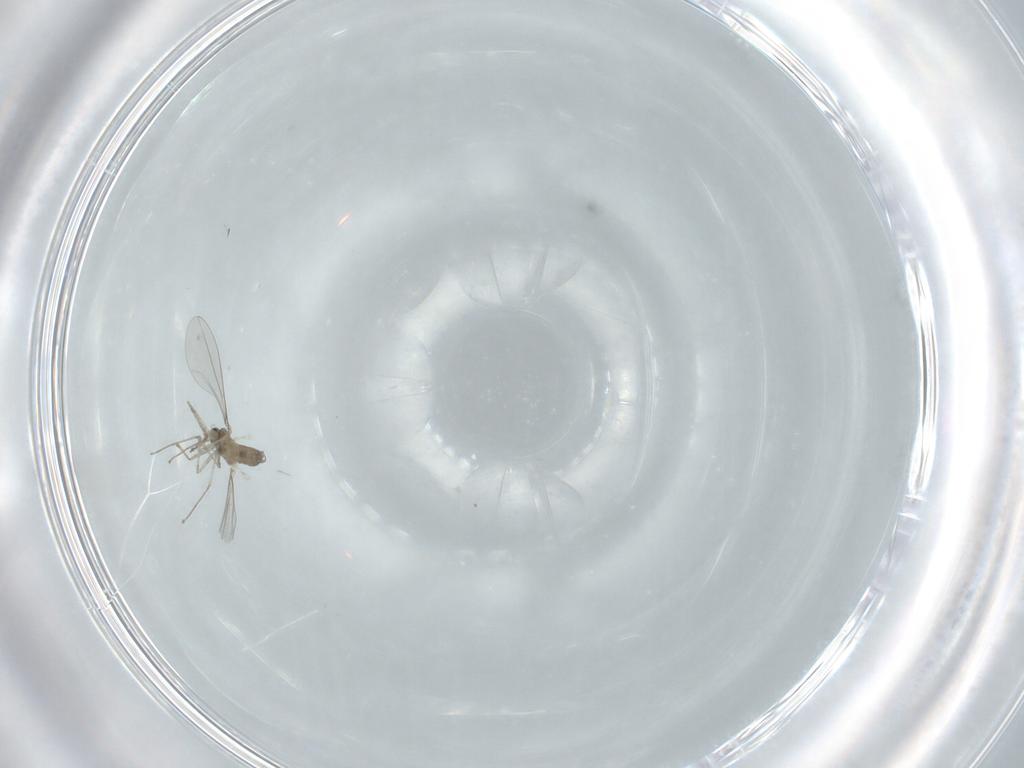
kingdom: Animalia
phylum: Arthropoda
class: Insecta
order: Diptera
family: Cecidomyiidae
